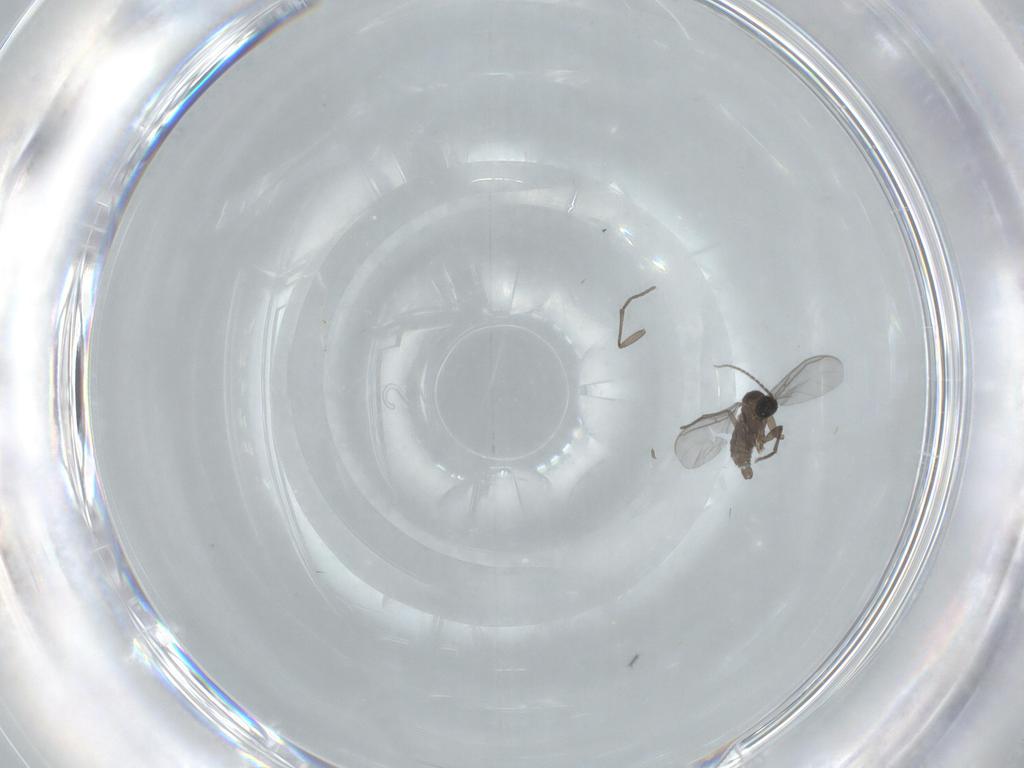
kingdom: Animalia
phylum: Arthropoda
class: Insecta
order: Diptera
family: Sciaridae
